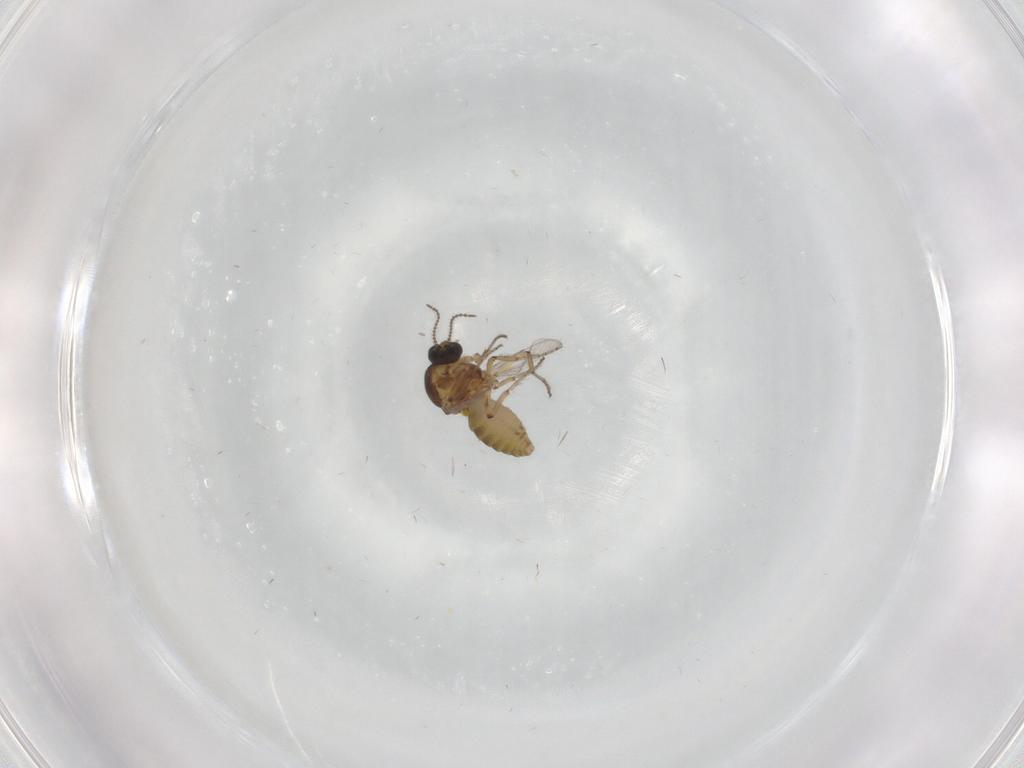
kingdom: Animalia
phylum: Arthropoda
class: Insecta
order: Diptera
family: Ceratopogonidae
